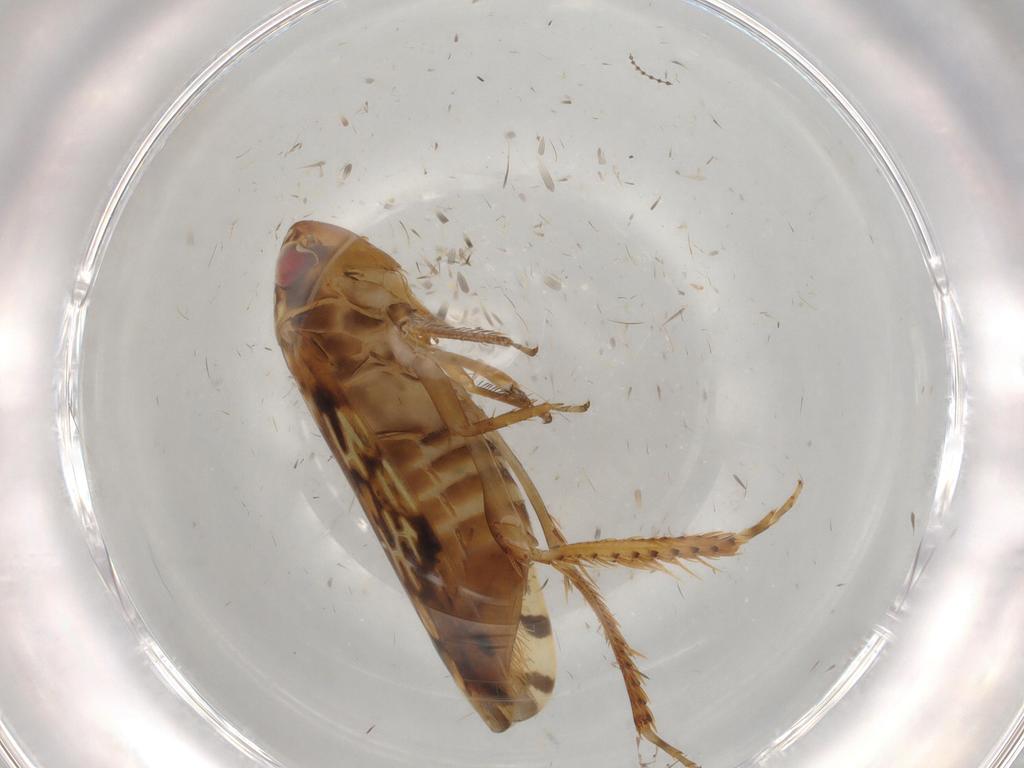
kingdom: Animalia
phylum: Arthropoda
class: Insecta
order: Hemiptera
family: Cicadellidae
